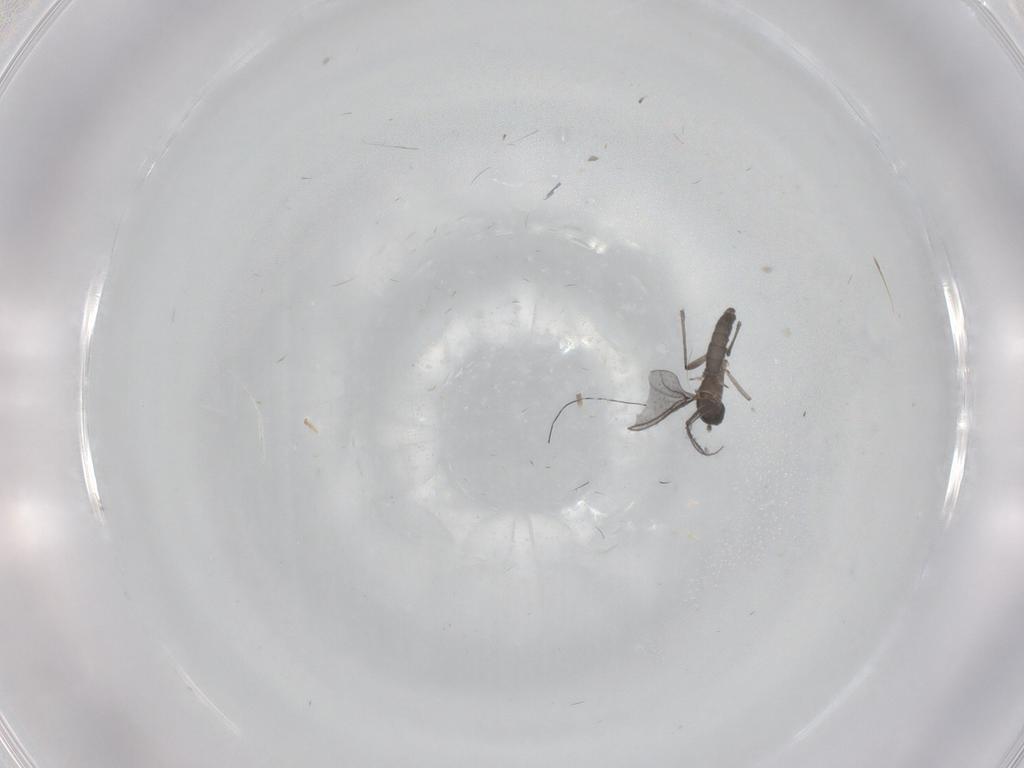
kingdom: Animalia
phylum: Arthropoda
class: Insecta
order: Diptera
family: Sciaridae
